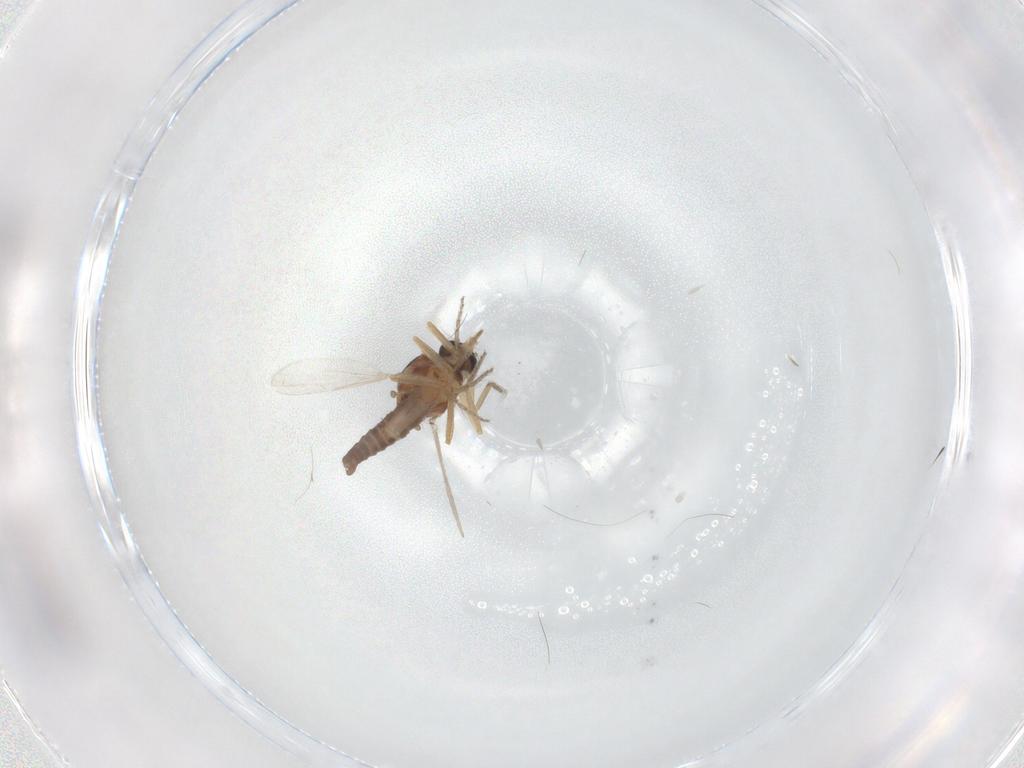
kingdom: Animalia
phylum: Arthropoda
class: Insecta
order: Diptera
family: Ceratopogonidae
